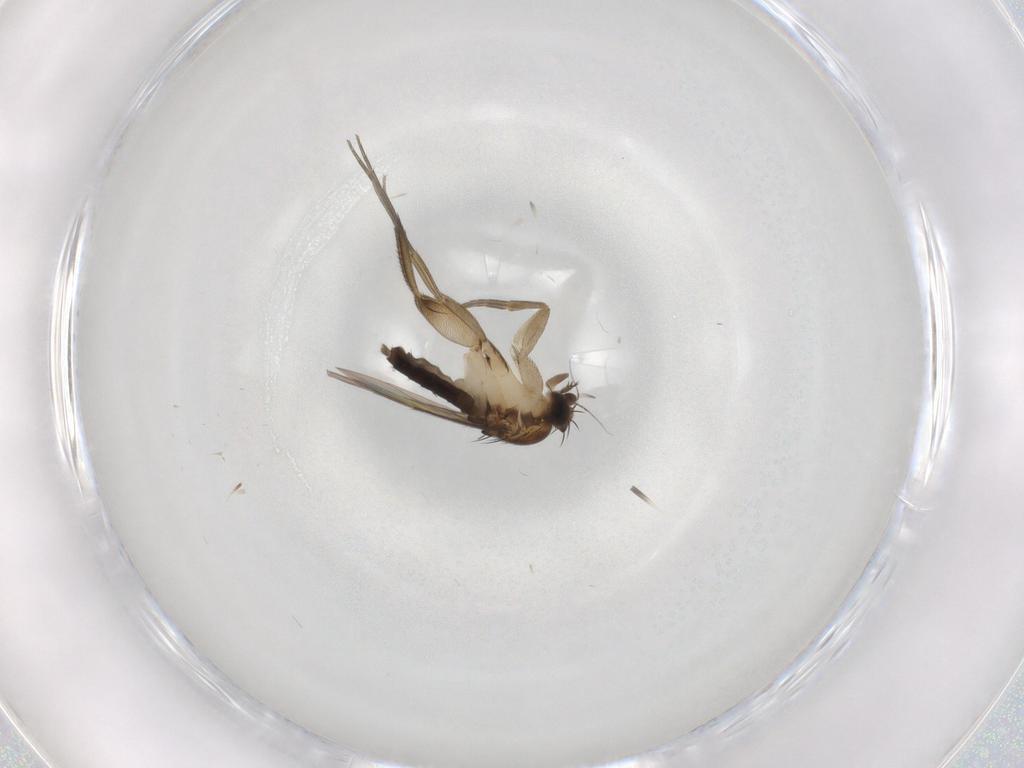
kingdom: Animalia
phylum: Arthropoda
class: Insecta
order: Diptera
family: Phoridae
